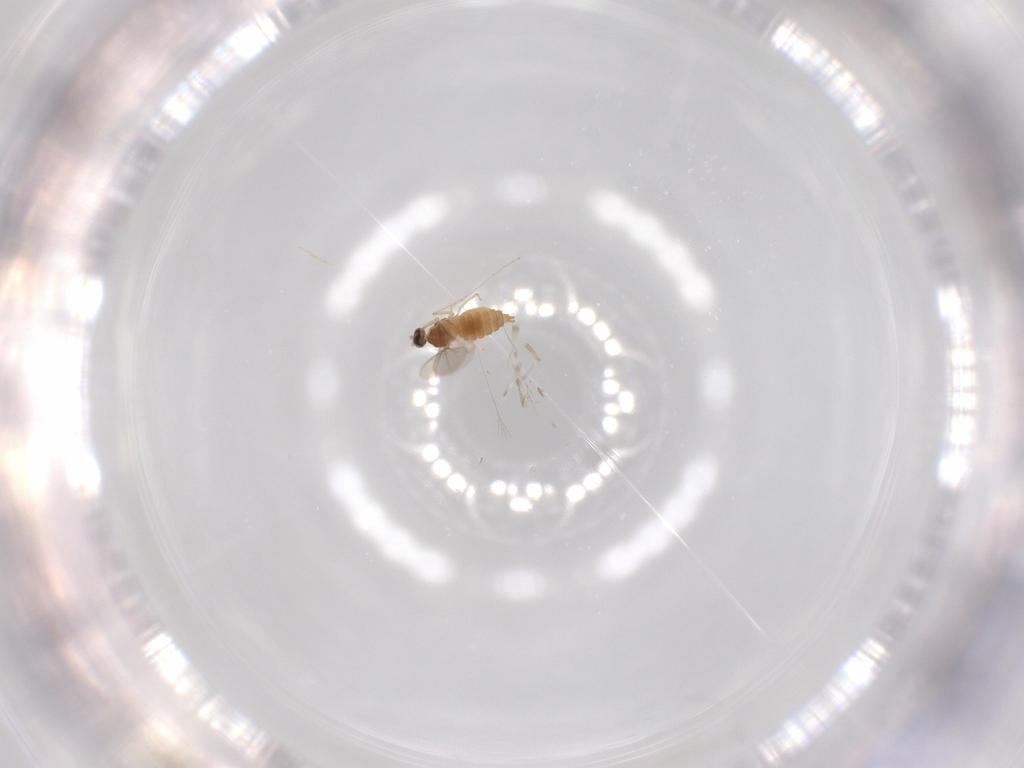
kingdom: Animalia
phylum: Arthropoda
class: Insecta
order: Diptera
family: Cecidomyiidae
